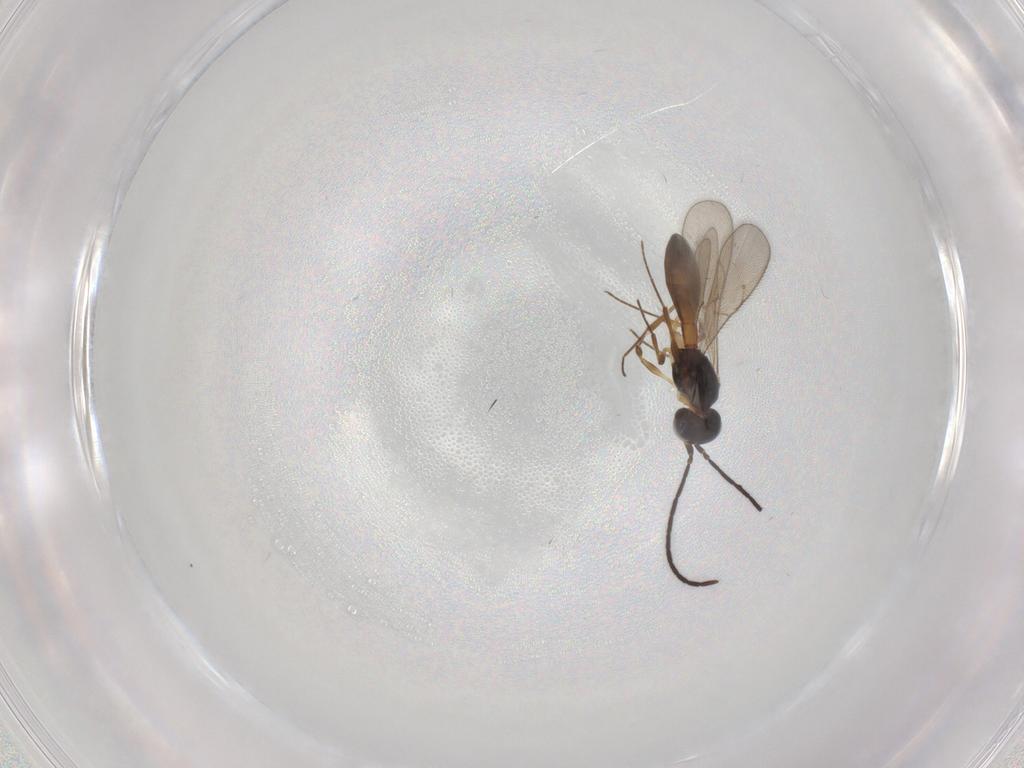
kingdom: Animalia
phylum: Arthropoda
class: Insecta
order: Hymenoptera
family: Scelionidae
